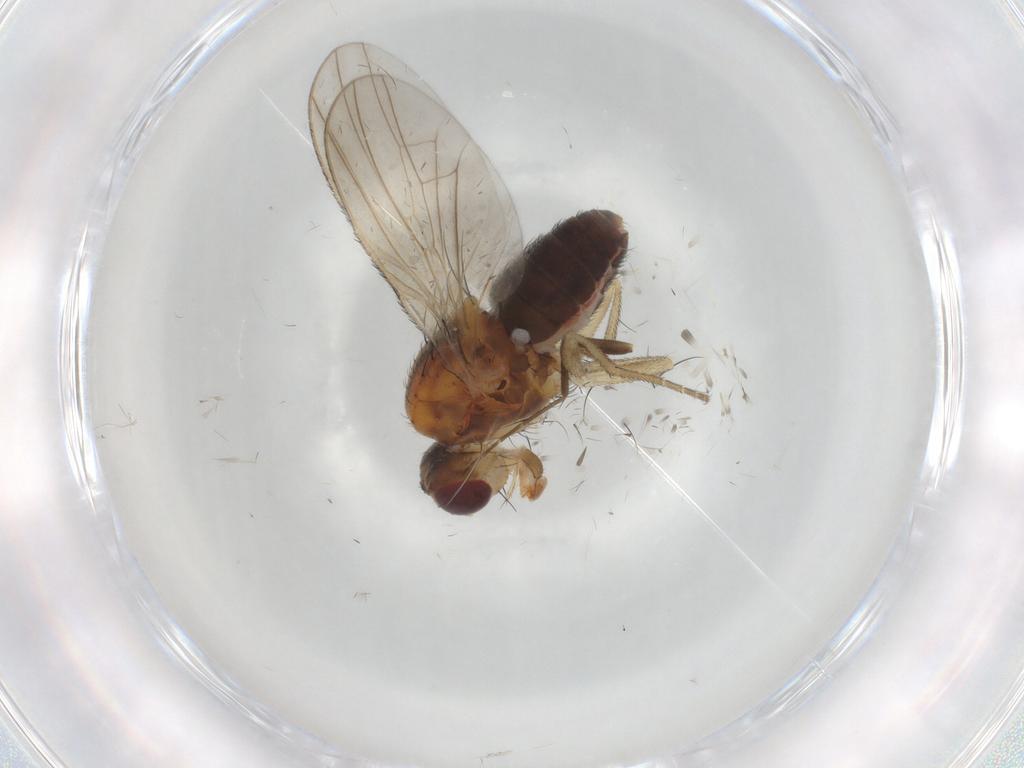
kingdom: Animalia
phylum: Arthropoda
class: Insecta
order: Diptera
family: Heleomyzidae
